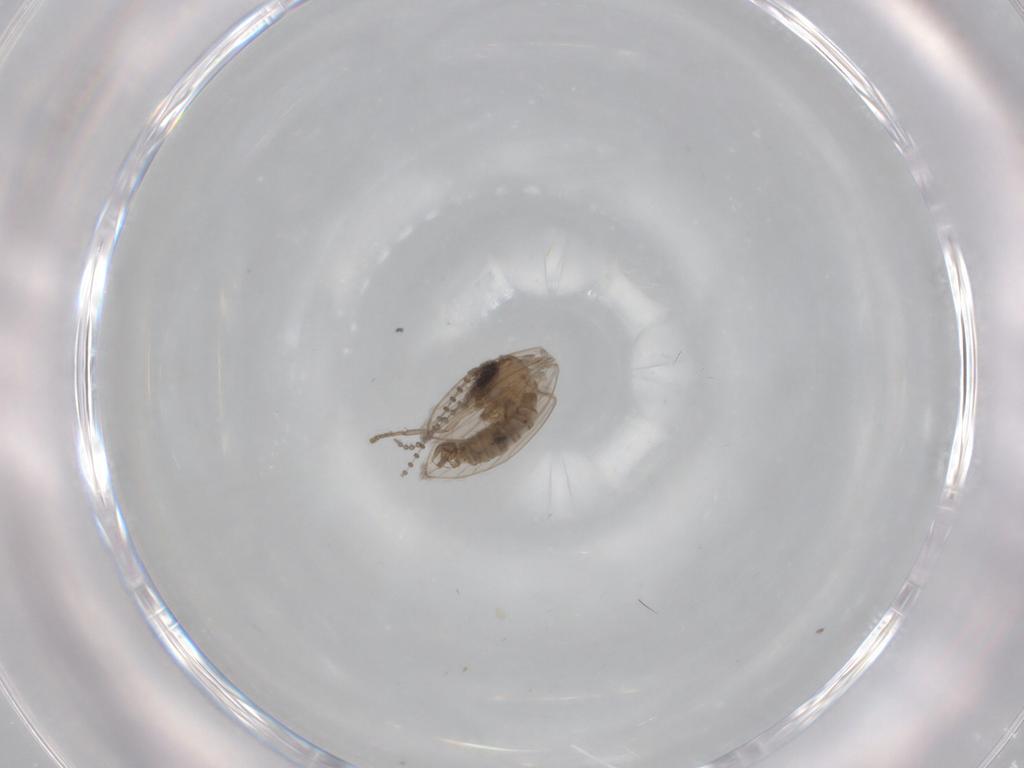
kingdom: Animalia
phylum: Arthropoda
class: Insecta
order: Diptera
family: Psychodidae
